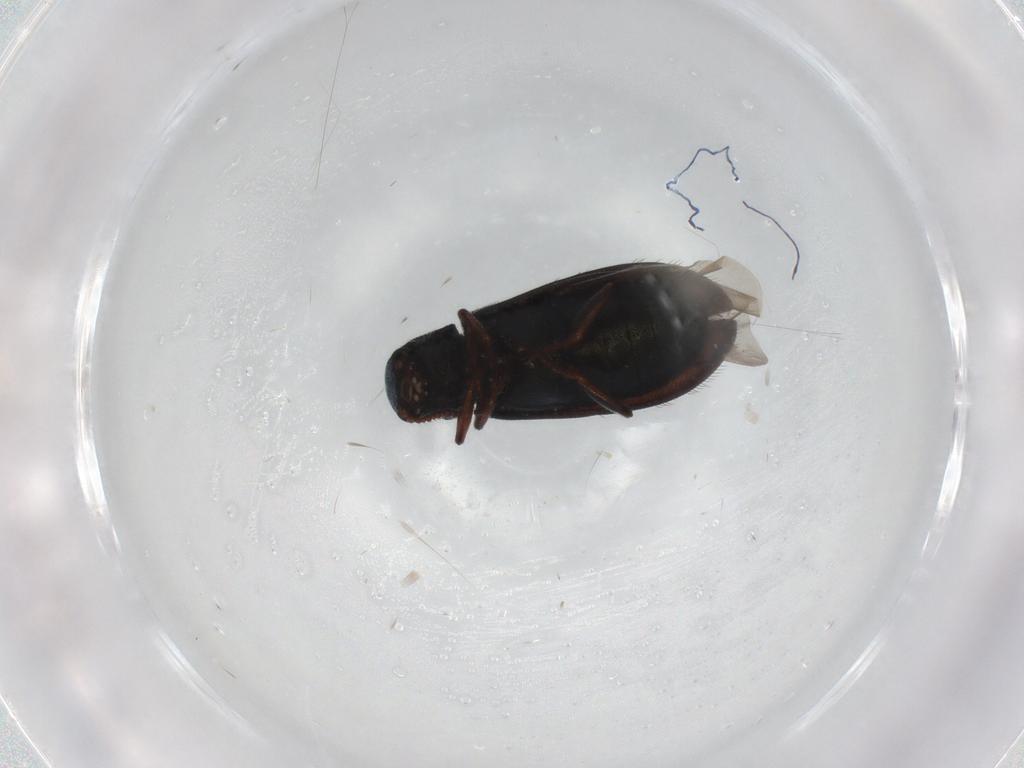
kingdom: Animalia
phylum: Arthropoda
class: Insecta
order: Coleoptera
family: Melyridae
